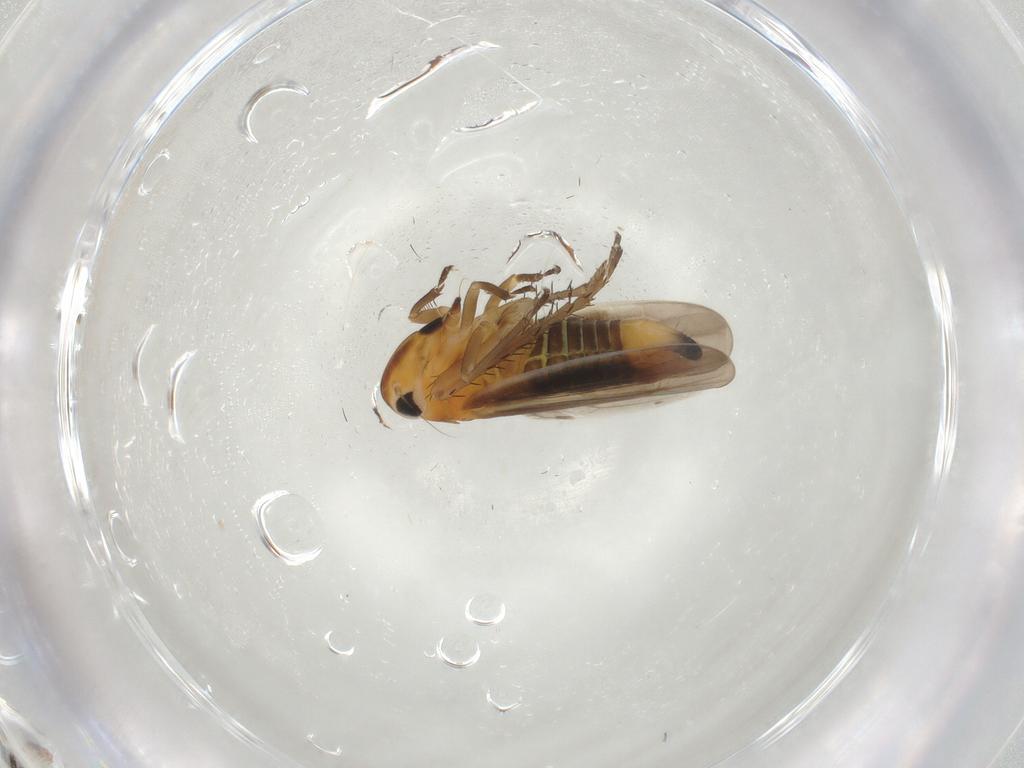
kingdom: Animalia
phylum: Arthropoda
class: Insecta
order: Hemiptera
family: Cicadellidae
